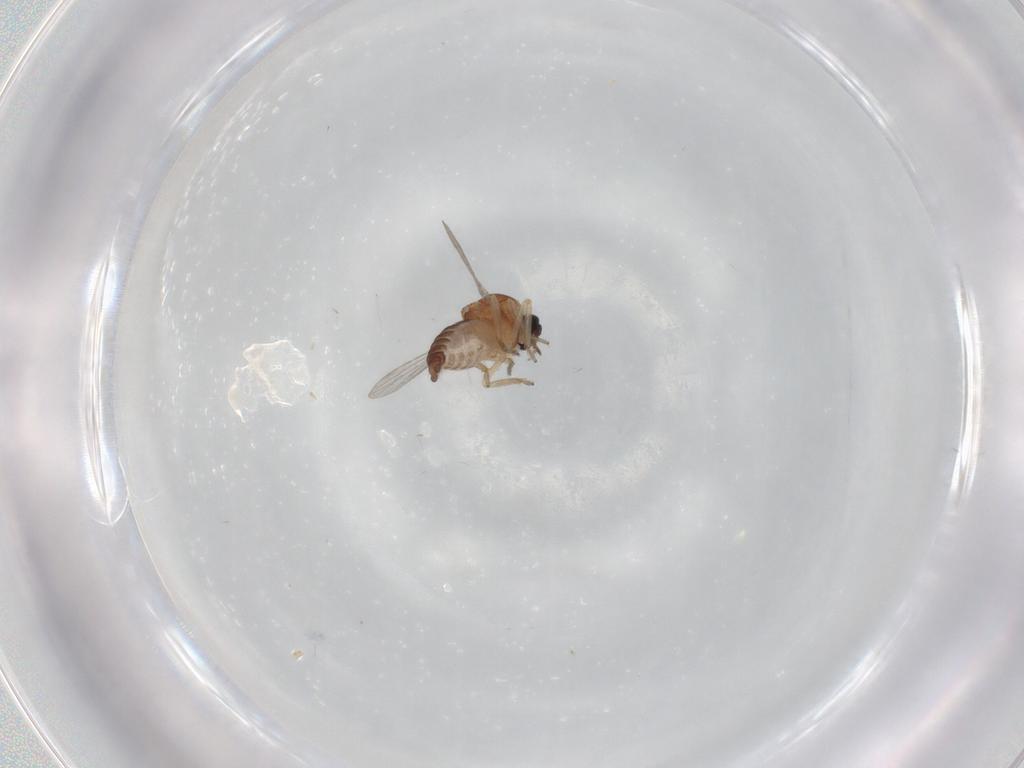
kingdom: Animalia
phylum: Arthropoda
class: Insecta
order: Diptera
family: Ceratopogonidae
